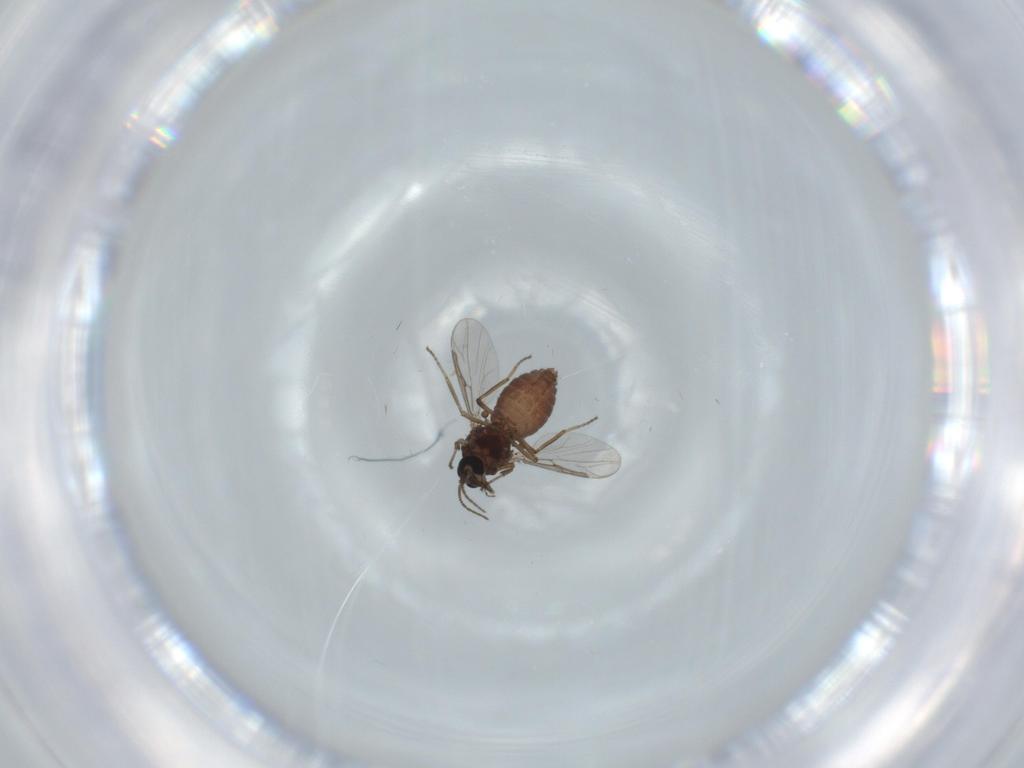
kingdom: Animalia
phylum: Arthropoda
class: Insecta
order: Diptera
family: Ceratopogonidae
